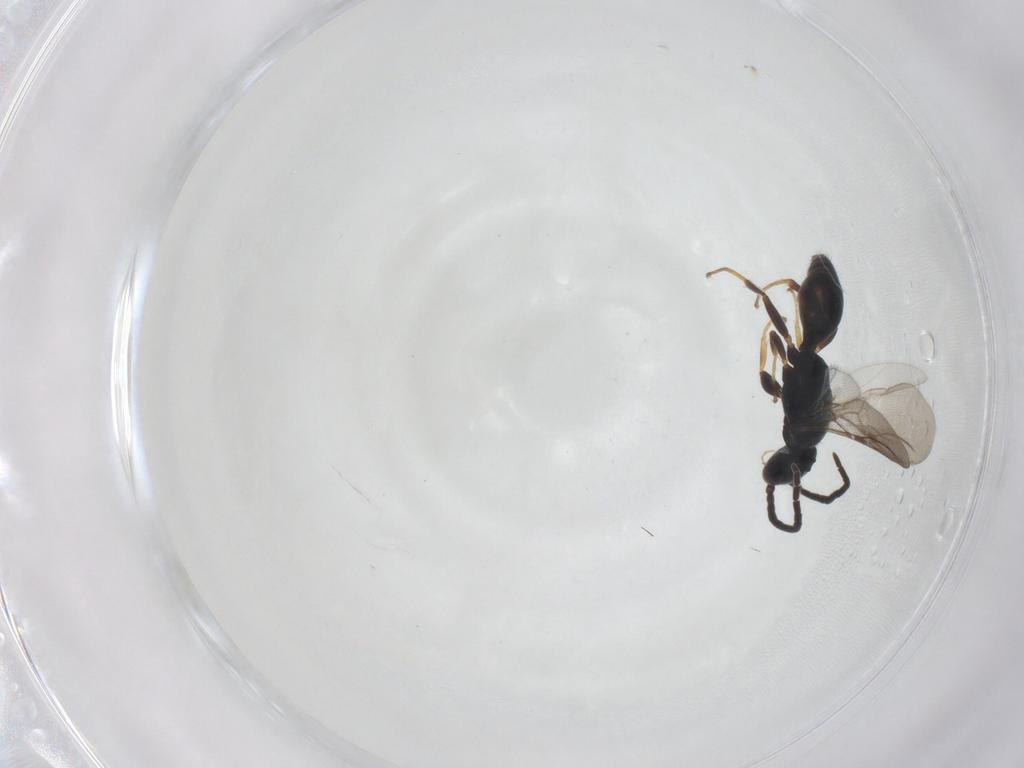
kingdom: Animalia
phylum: Arthropoda
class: Insecta
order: Hymenoptera
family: Bethylidae
